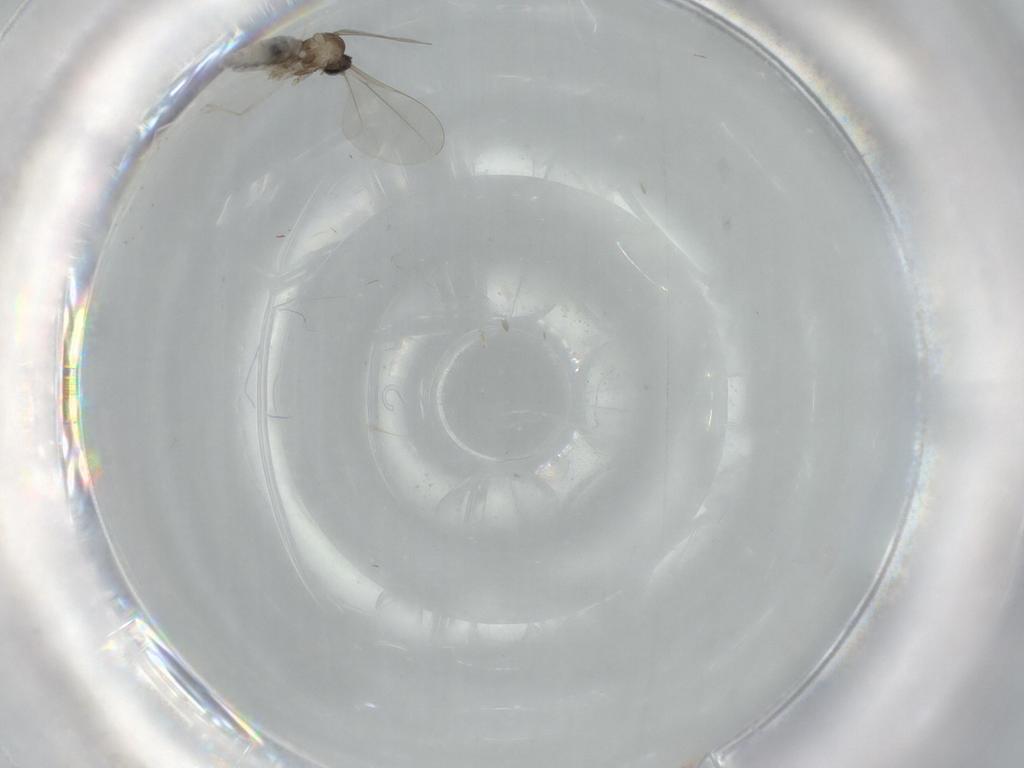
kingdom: Animalia
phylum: Arthropoda
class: Insecta
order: Diptera
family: Cecidomyiidae
